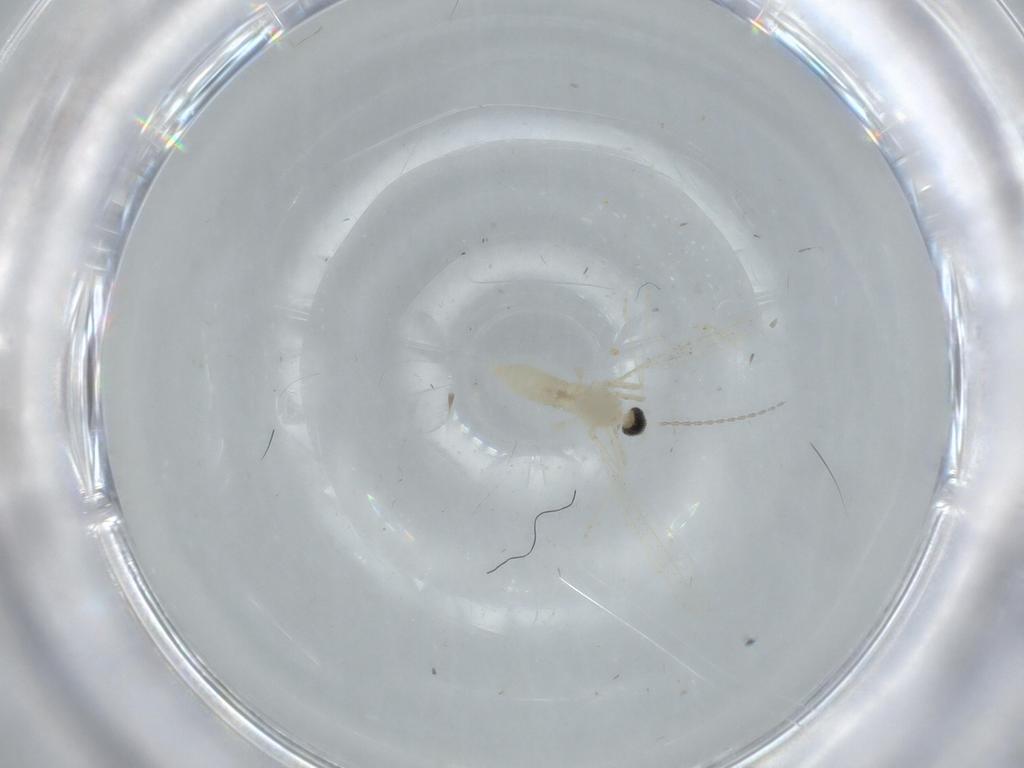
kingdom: Animalia
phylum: Arthropoda
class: Insecta
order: Diptera
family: Cecidomyiidae
